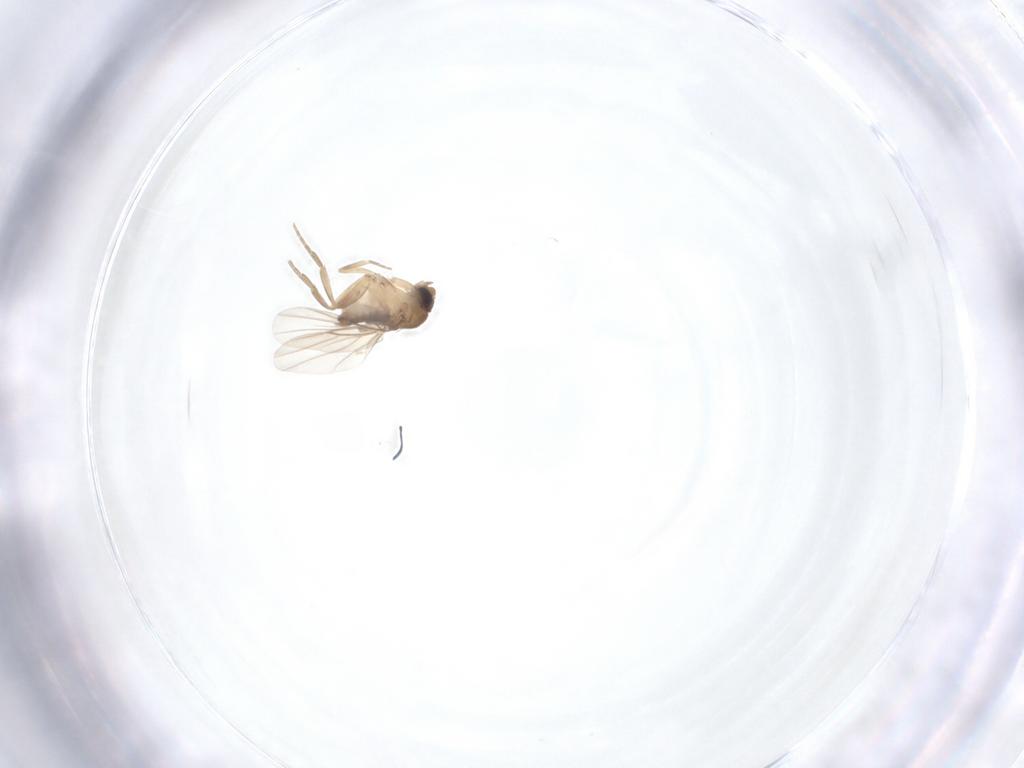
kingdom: Animalia
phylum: Arthropoda
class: Insecta
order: Diptera
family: Phoridae
